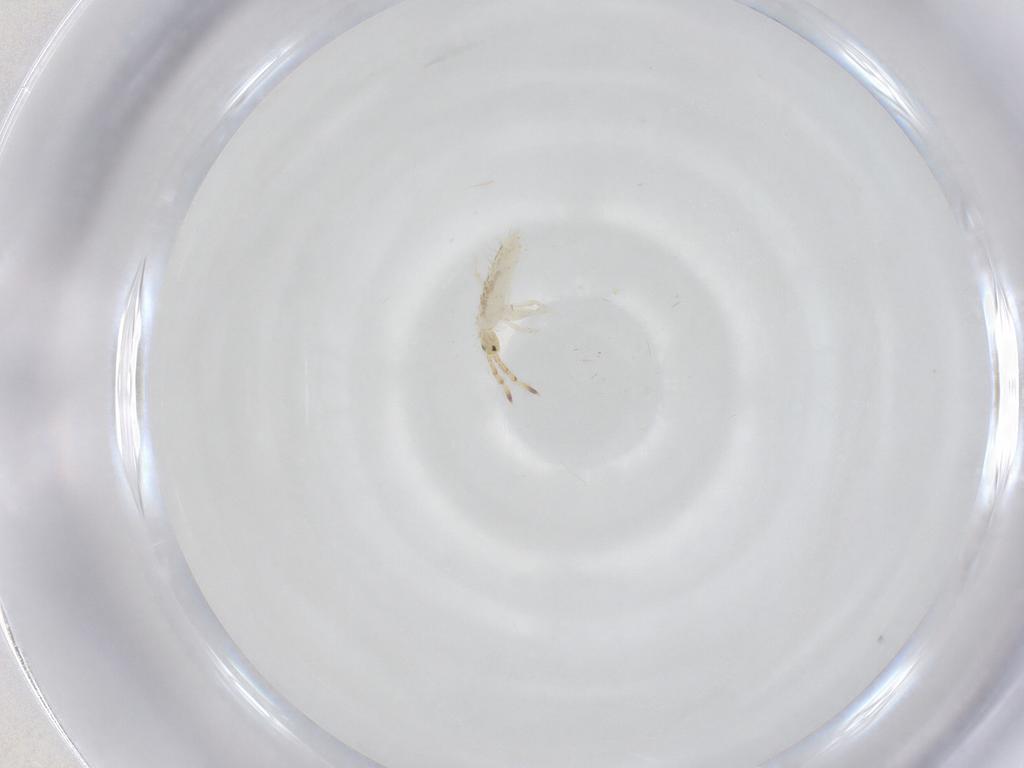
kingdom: Animalia
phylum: Arthropoda
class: Collembola
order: Entomobryomorpha
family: Entomobryidae
